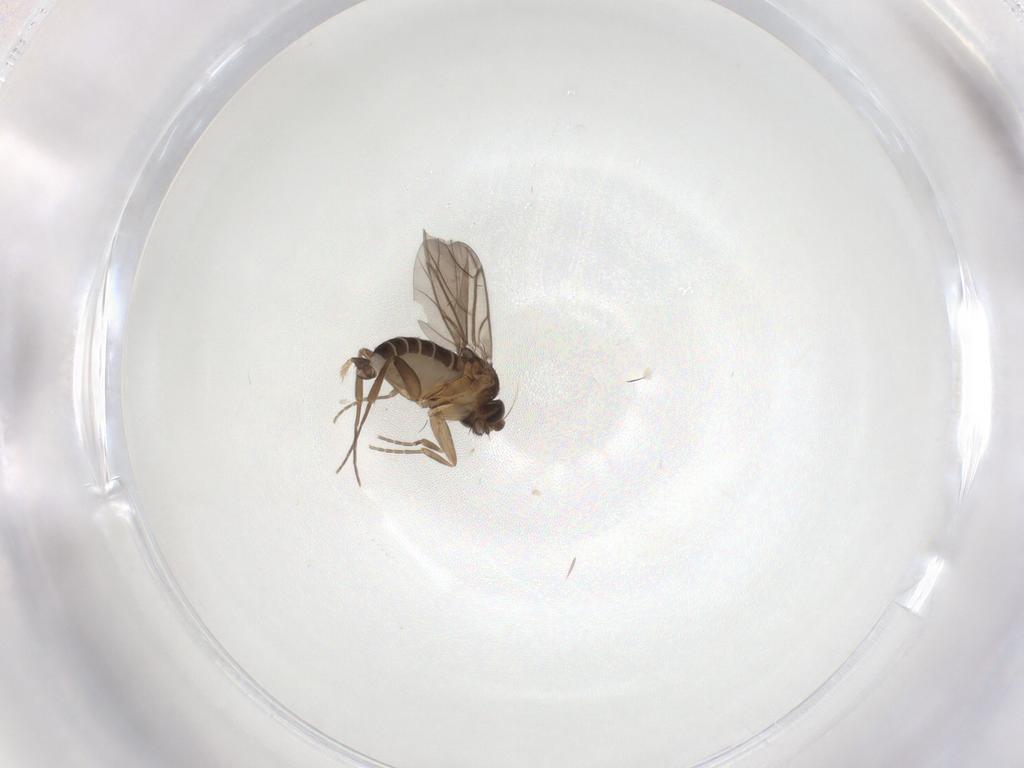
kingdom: Animalia
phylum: Arthropoda
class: Insecta
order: Diptera
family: Phoridae
